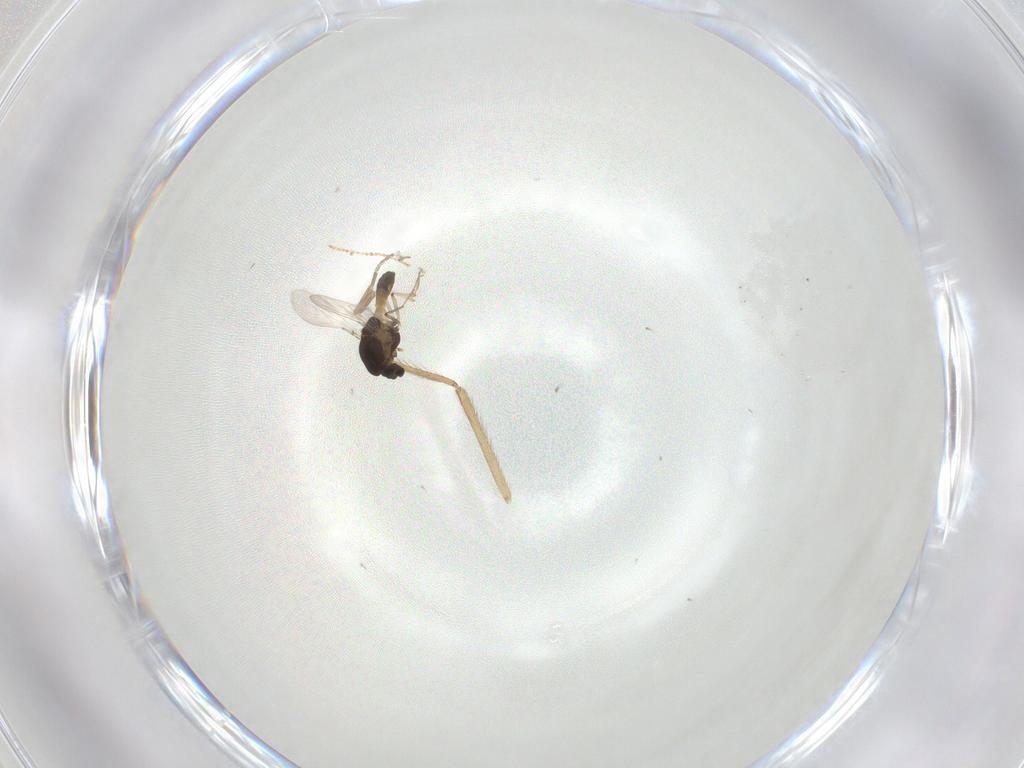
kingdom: Animalia
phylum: Arthropoda
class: Insecta
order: Diptera
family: Chironomidae
